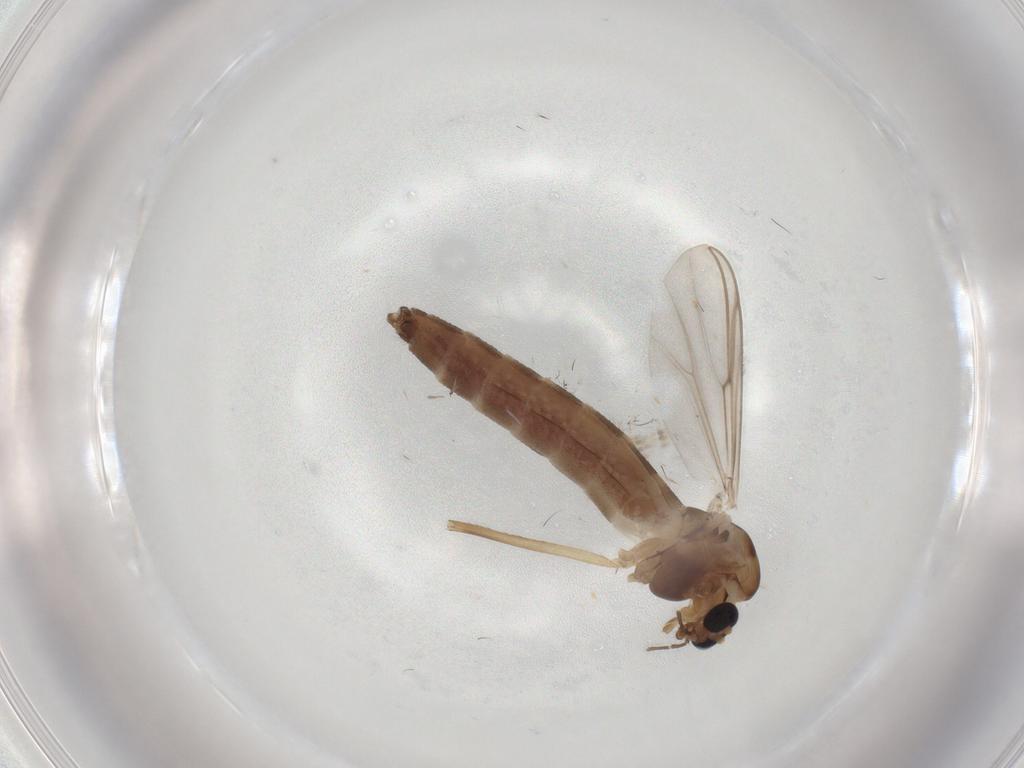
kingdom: Animalia
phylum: Arthropoda
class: Insecta
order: Diptera
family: Chironomidae
